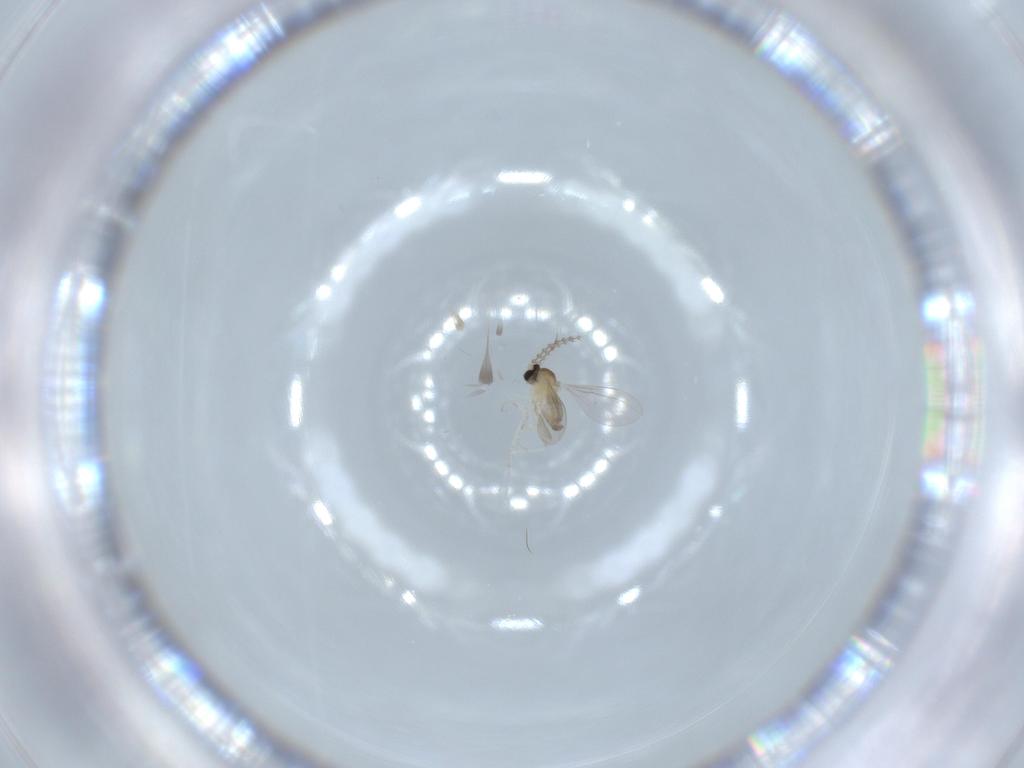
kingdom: Animalia
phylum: Arthropoda
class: Insecta
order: Diptera
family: Cecidomyiidae
